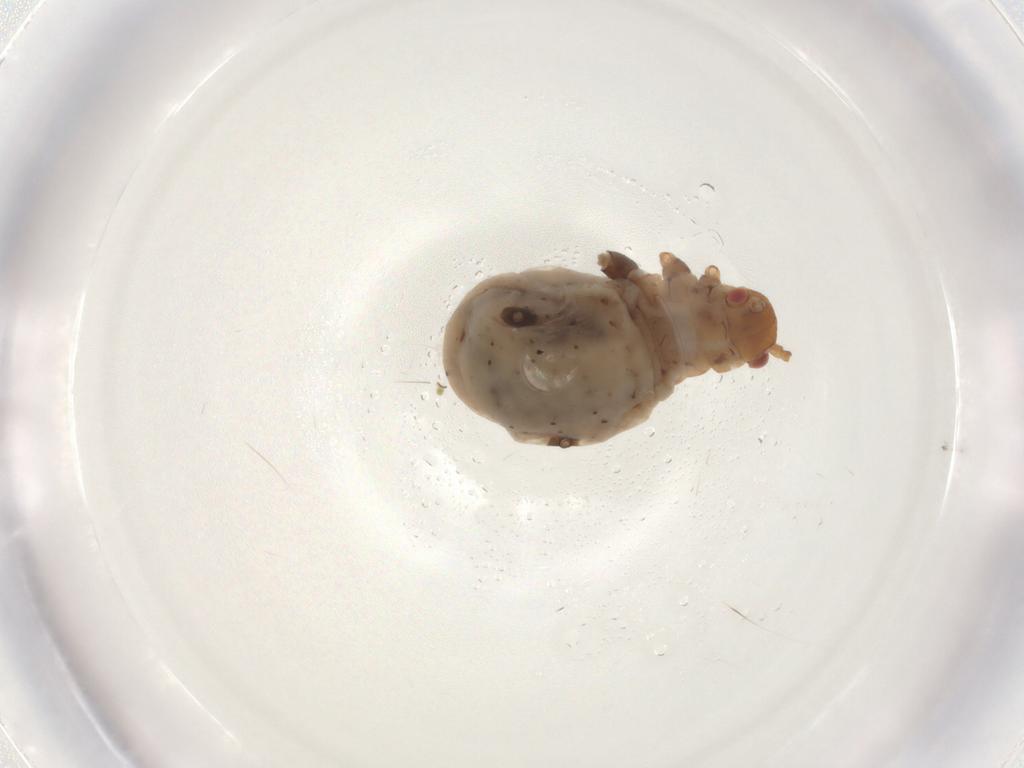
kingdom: Animalia
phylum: Arthropoda
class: Insecta
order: Hemiptera
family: Lachnidae
